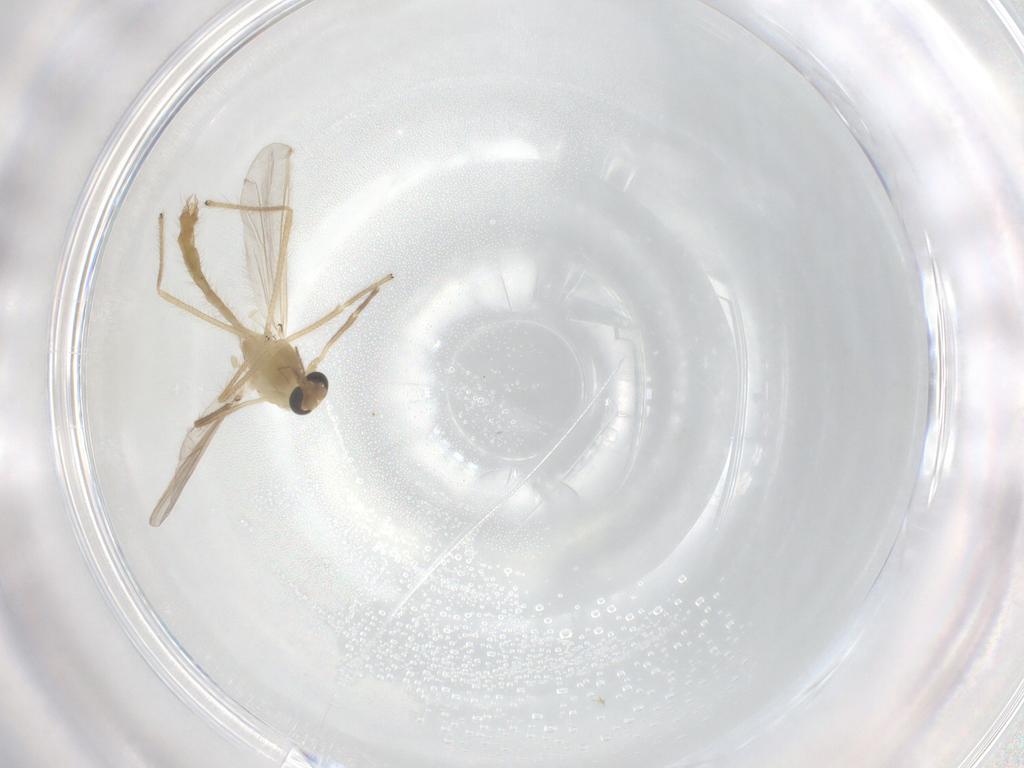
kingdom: Animalia
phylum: Arthropoda
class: Insecta
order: Diptera
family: Chironomidae
